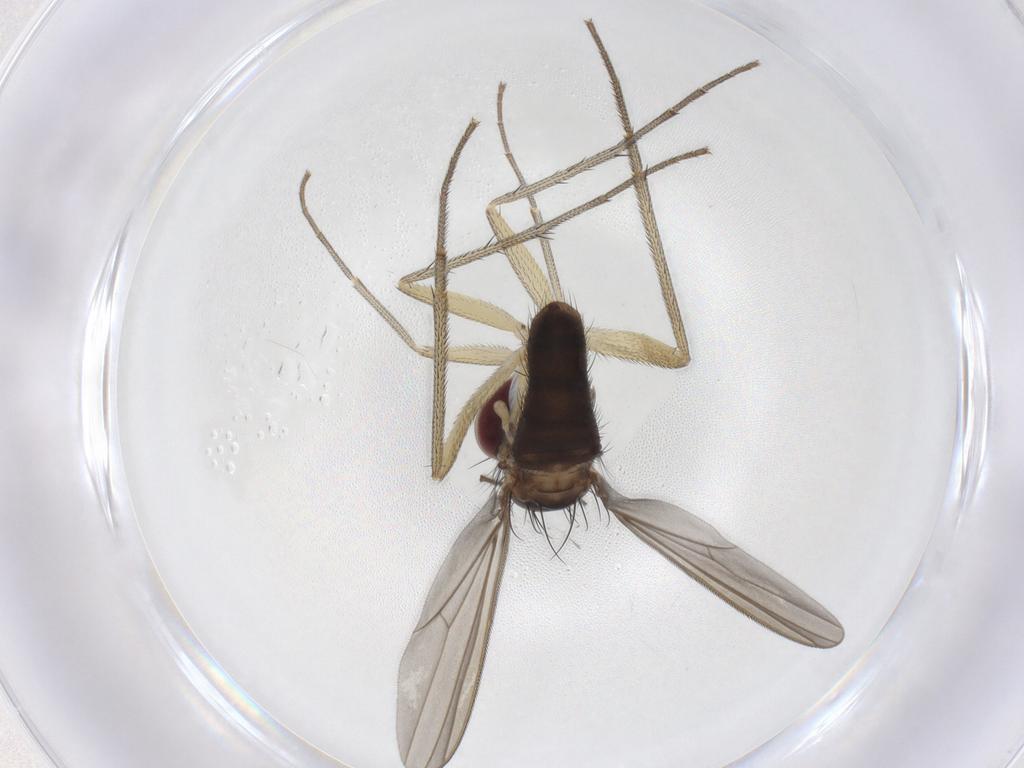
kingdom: Animalia
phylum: Arthropoda
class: Insecta
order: Diptera
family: Dolichopodidae
